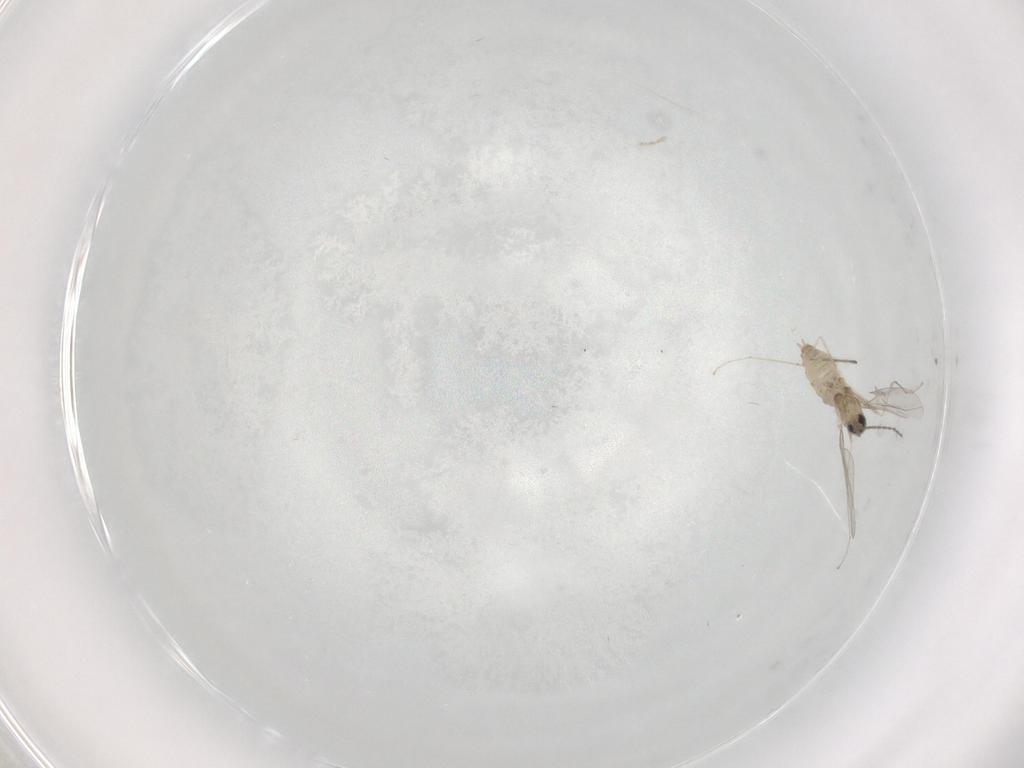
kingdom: Animalia
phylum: Arthropoda
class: Insecta
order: Diptera
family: Cecidomyiidae
